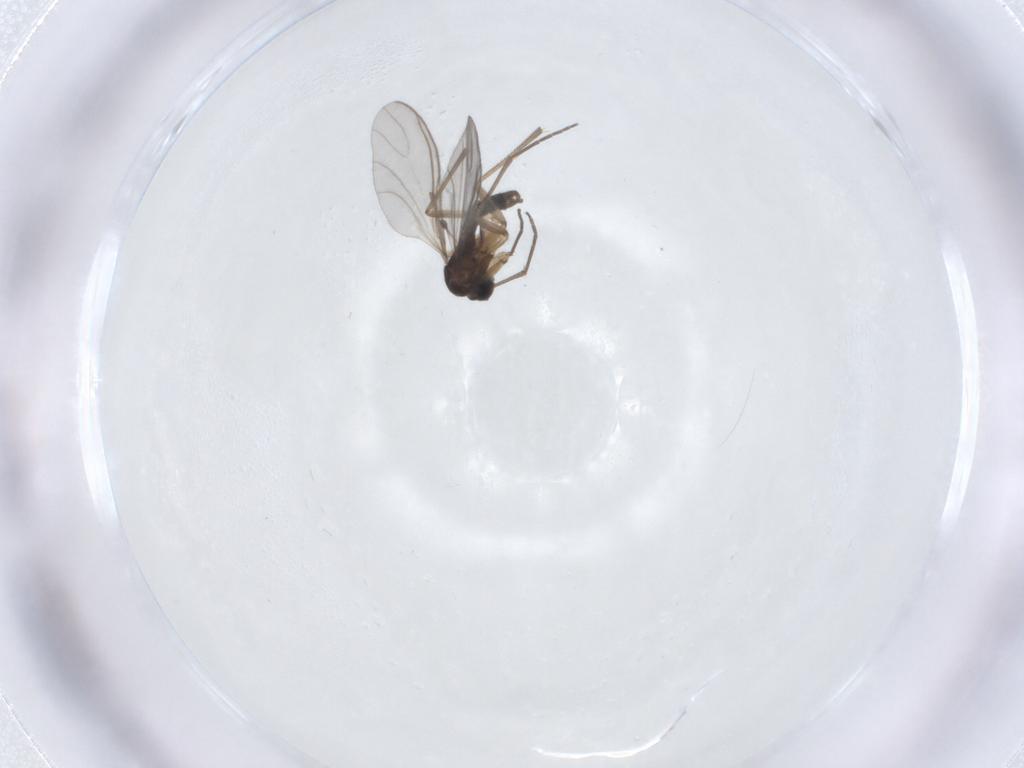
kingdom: Animalia
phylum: Arthropoda
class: Insecta
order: Diptera
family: Sciaridae
